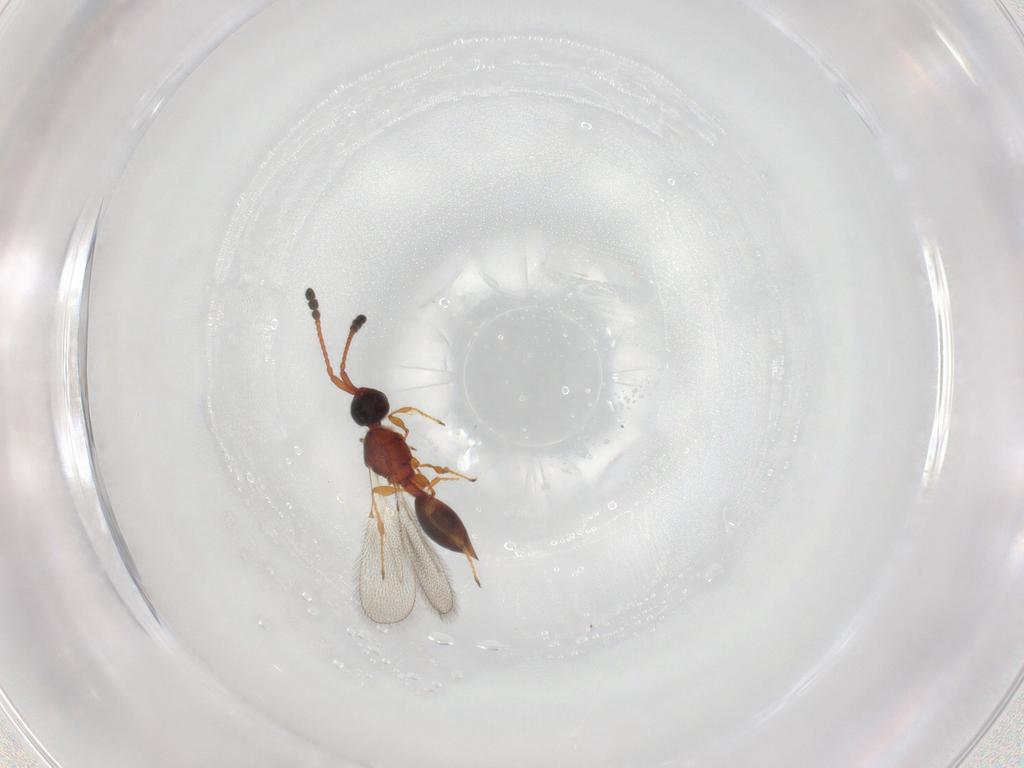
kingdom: Animalia
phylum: Arthropoda
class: Insecta
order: Hymenoptera
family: Diapriidae
